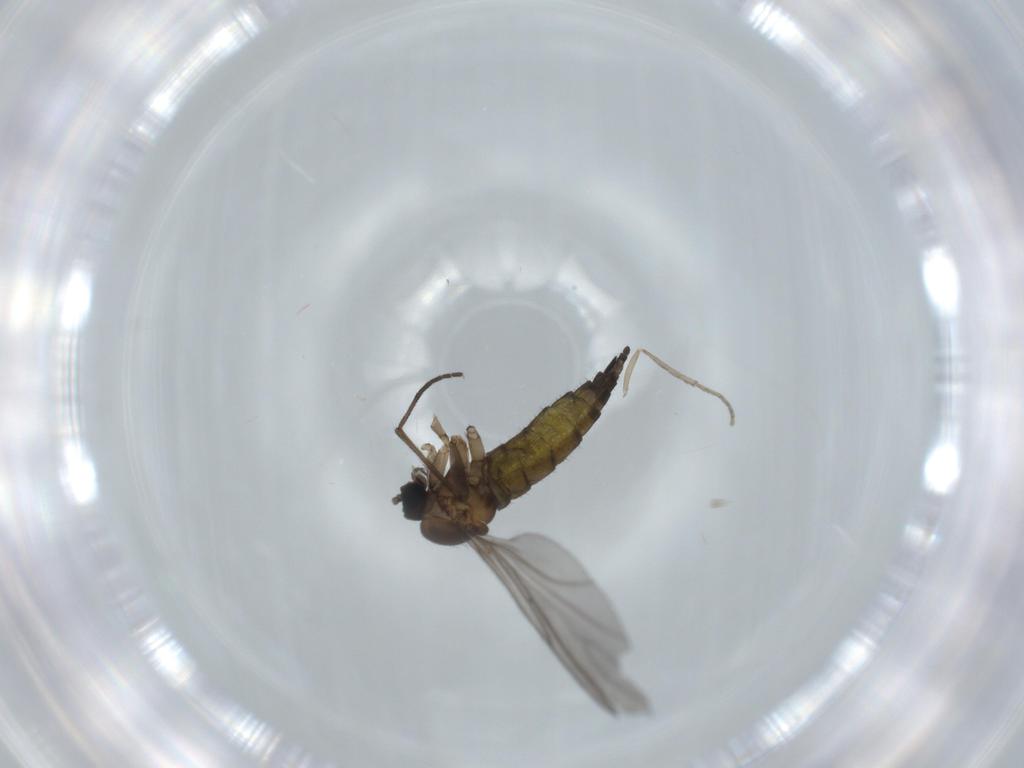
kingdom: Animalia
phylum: Arthropoda
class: Insecta
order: Diptera
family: Sciaridae
